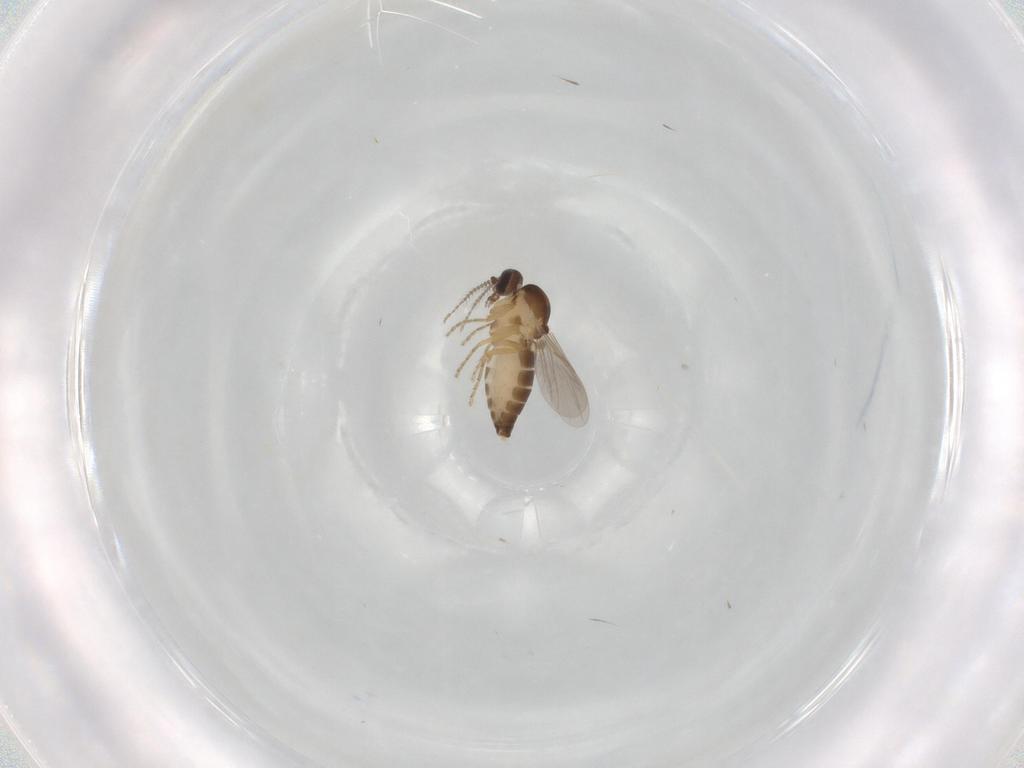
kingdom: Animalia
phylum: Arthropoda
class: Insecta
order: Diptera
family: Ceratopogonidae
